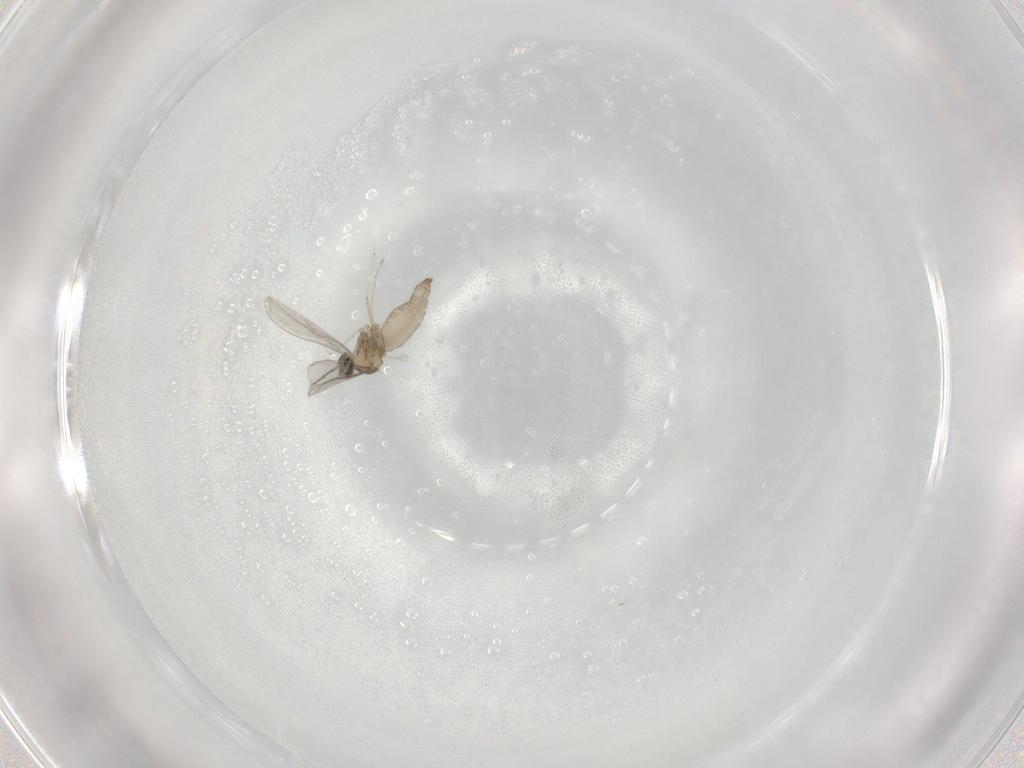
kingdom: Animalia
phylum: Arthropoda
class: Insecta
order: Diptera
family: Cecidomyiidae
